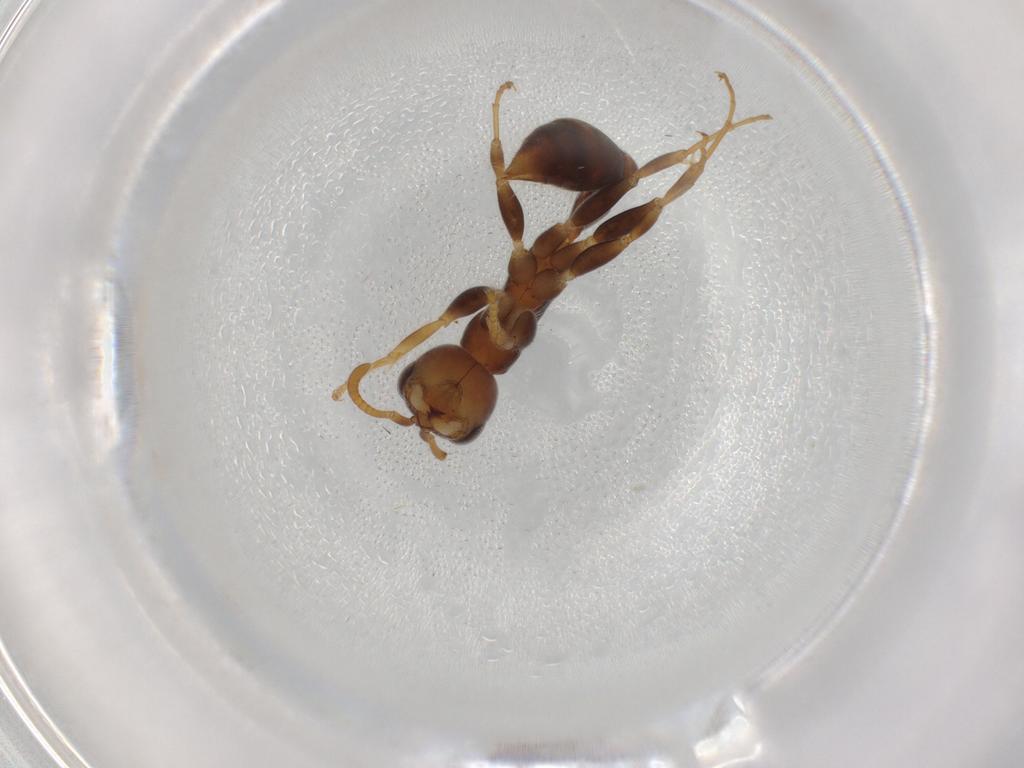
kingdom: Animalia
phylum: Arthropoda
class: Insecta
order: Hymenoptera
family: Formicidae
